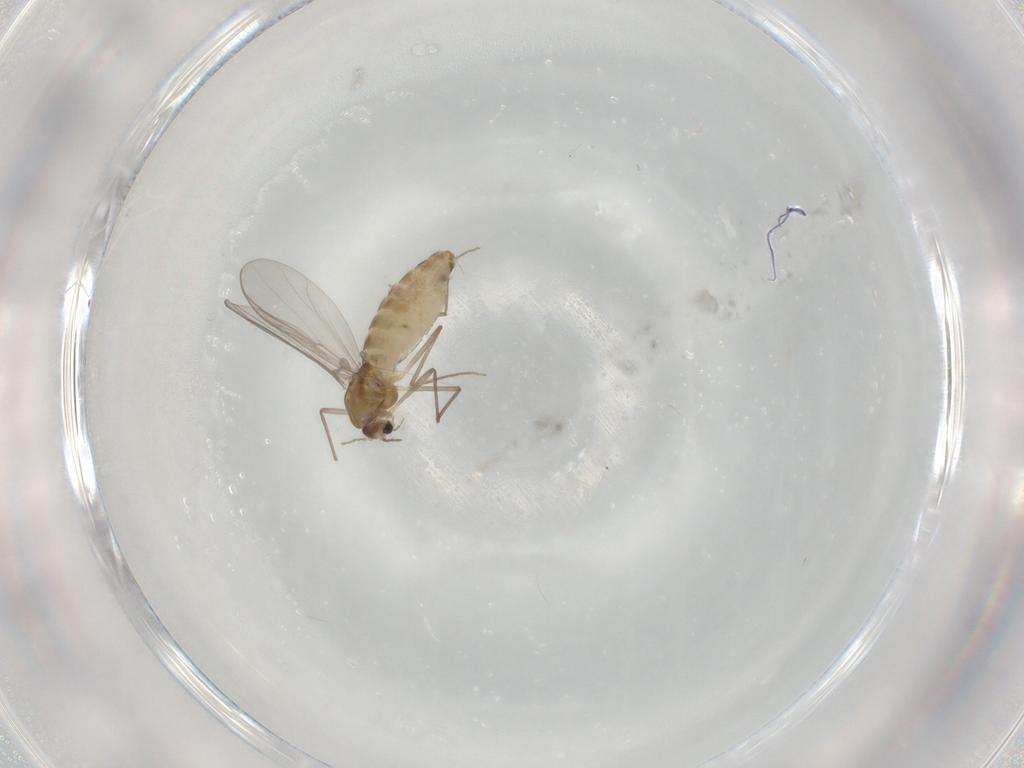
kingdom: Animalia
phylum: Arthropoda
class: Insecta
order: Diptera
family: Chironomidae
